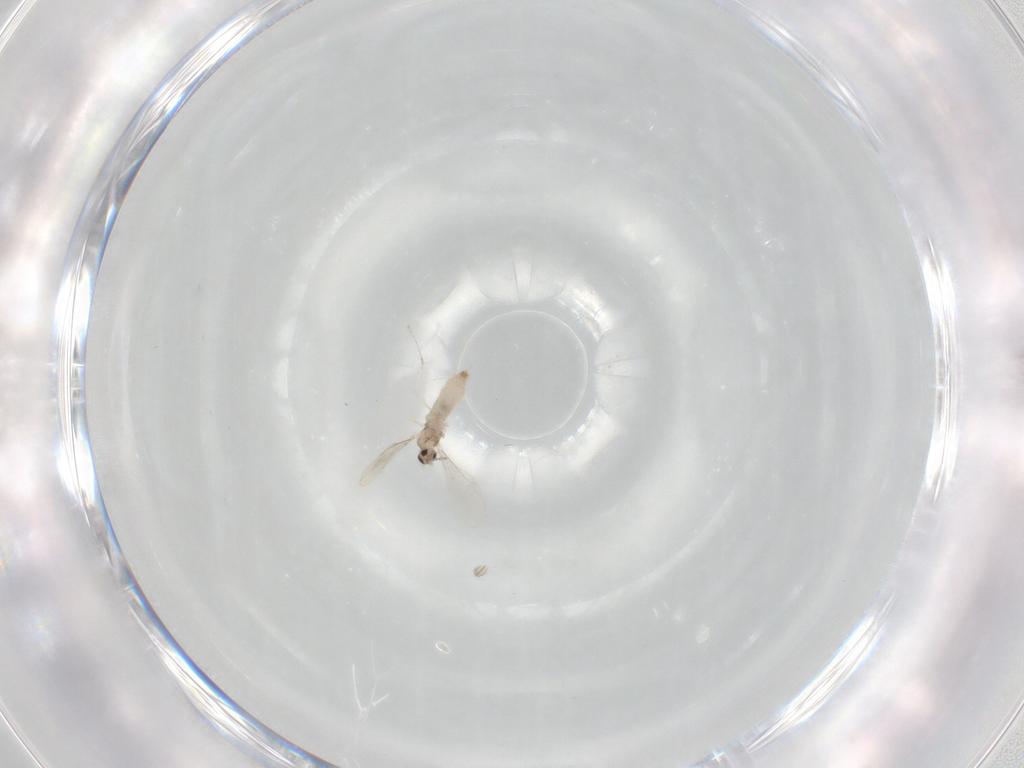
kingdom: Animalia
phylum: Arthropoda
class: Insecta
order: Diptera
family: Cecidomyiidae
